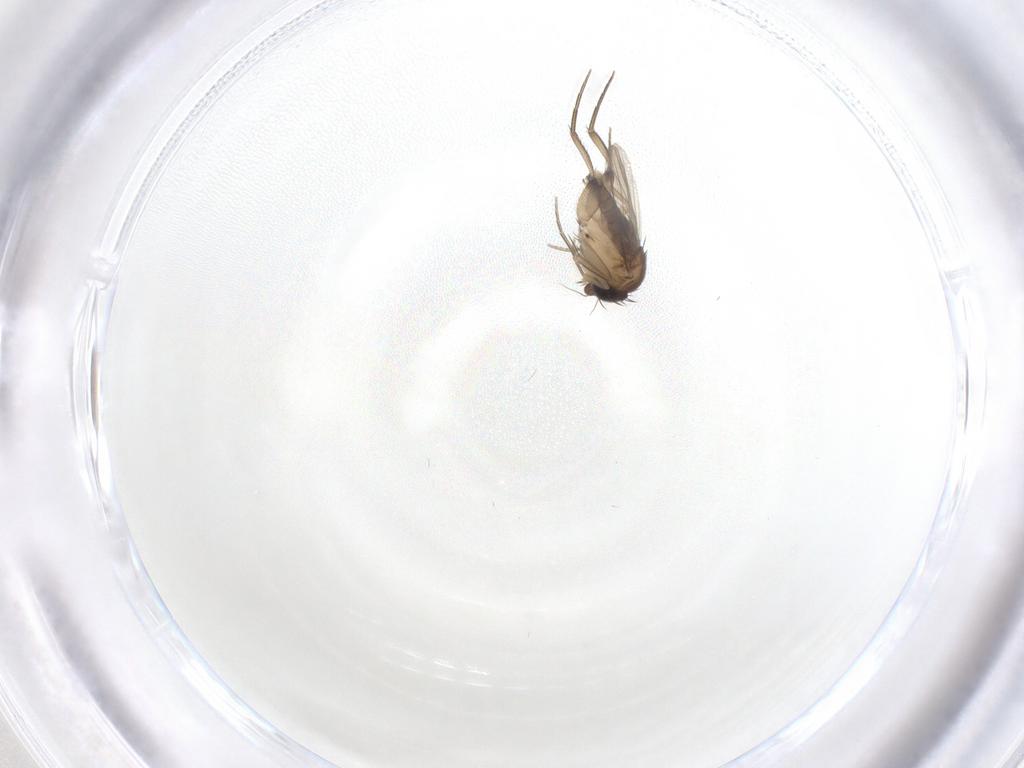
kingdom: Animalia
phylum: Arthropoda
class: Insecta
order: Diptera
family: Phoridae
